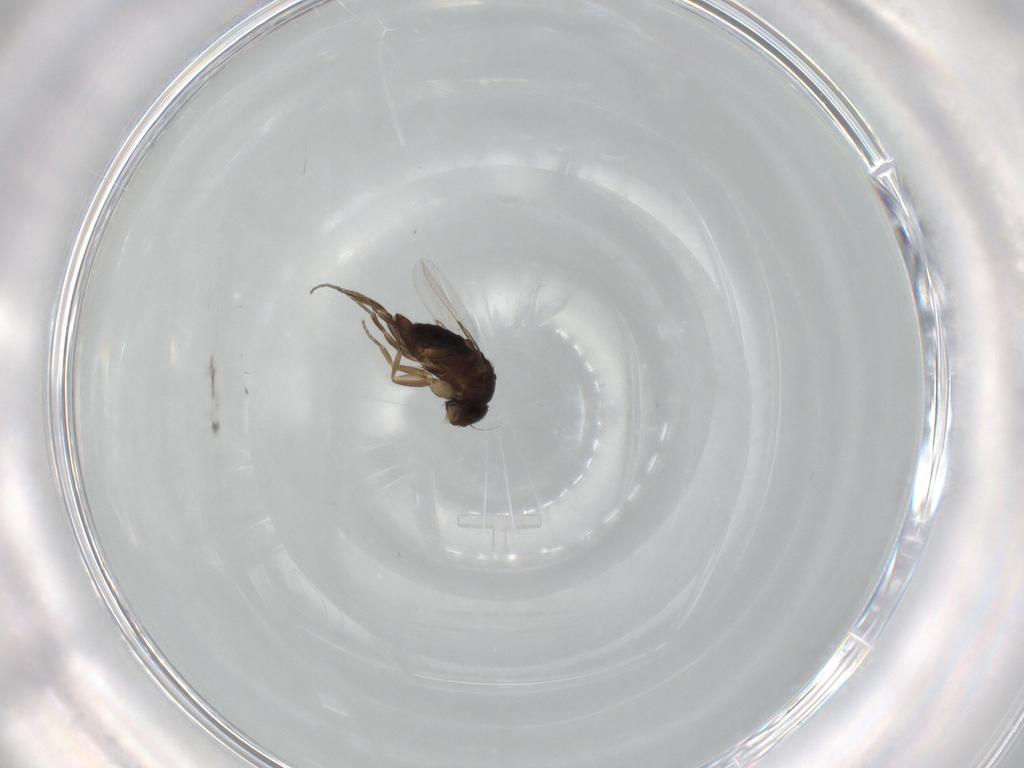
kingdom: Animalia
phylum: Arthropoda
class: Insecta
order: Diptera
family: Phoridae
